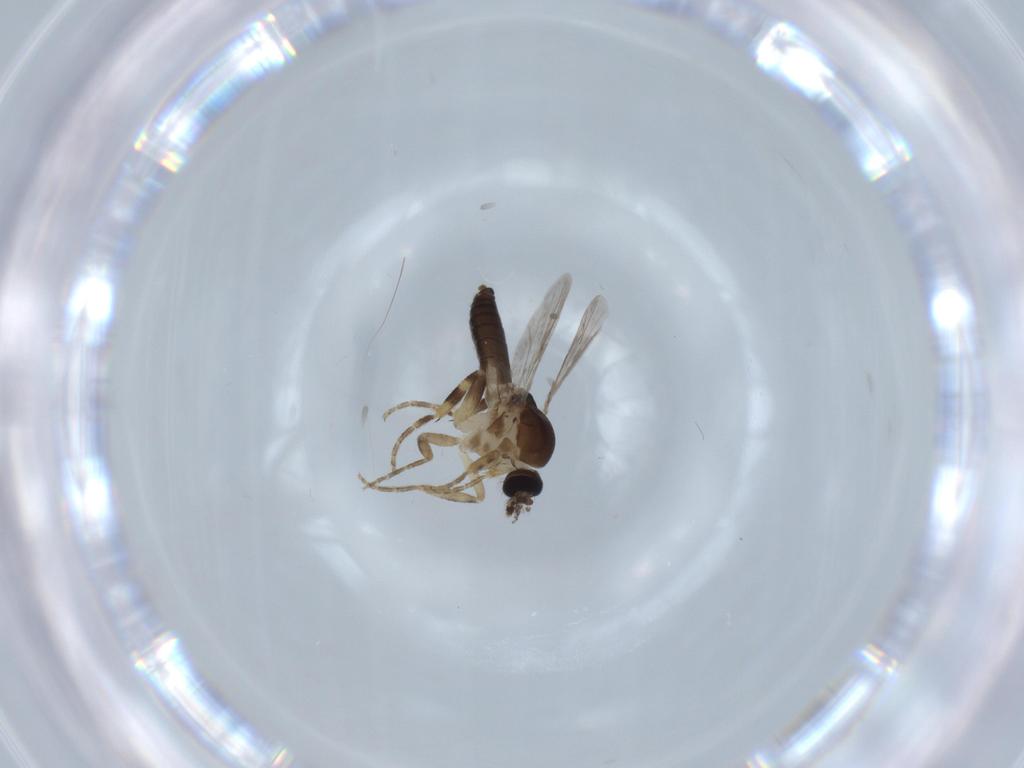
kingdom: Animalia
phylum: Arthropoda
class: Insecta
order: Diptera
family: Ceratopogonidae
